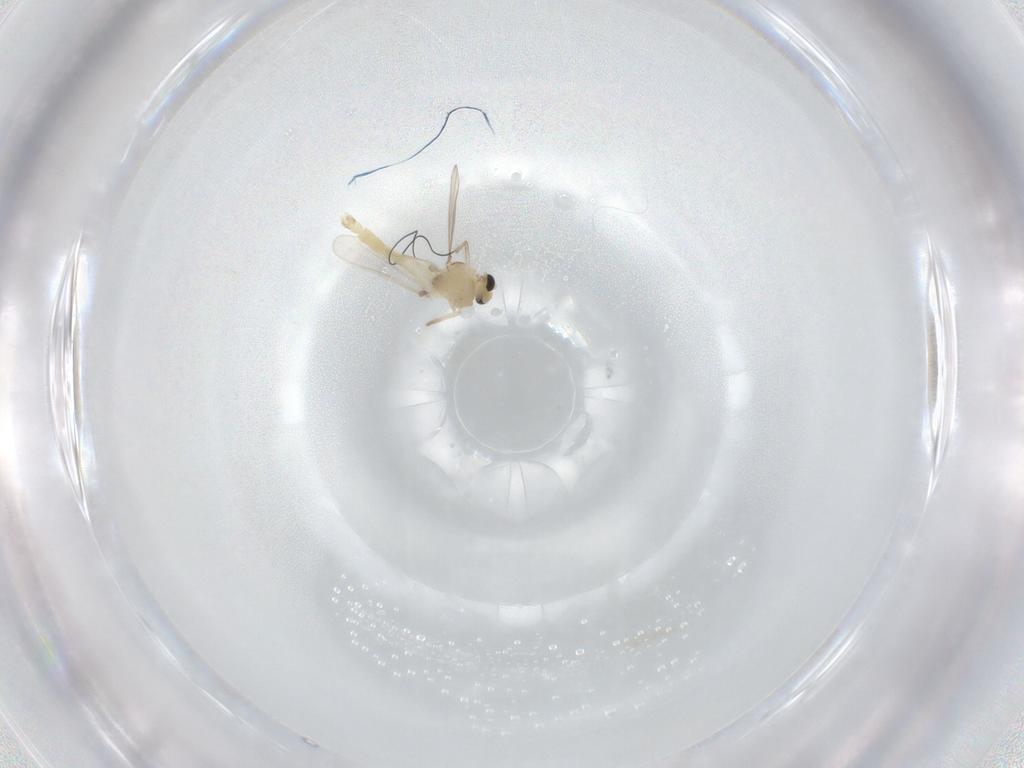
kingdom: Animalia
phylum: Arthropoda
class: Insecta
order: Diptera
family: Chironomidae
